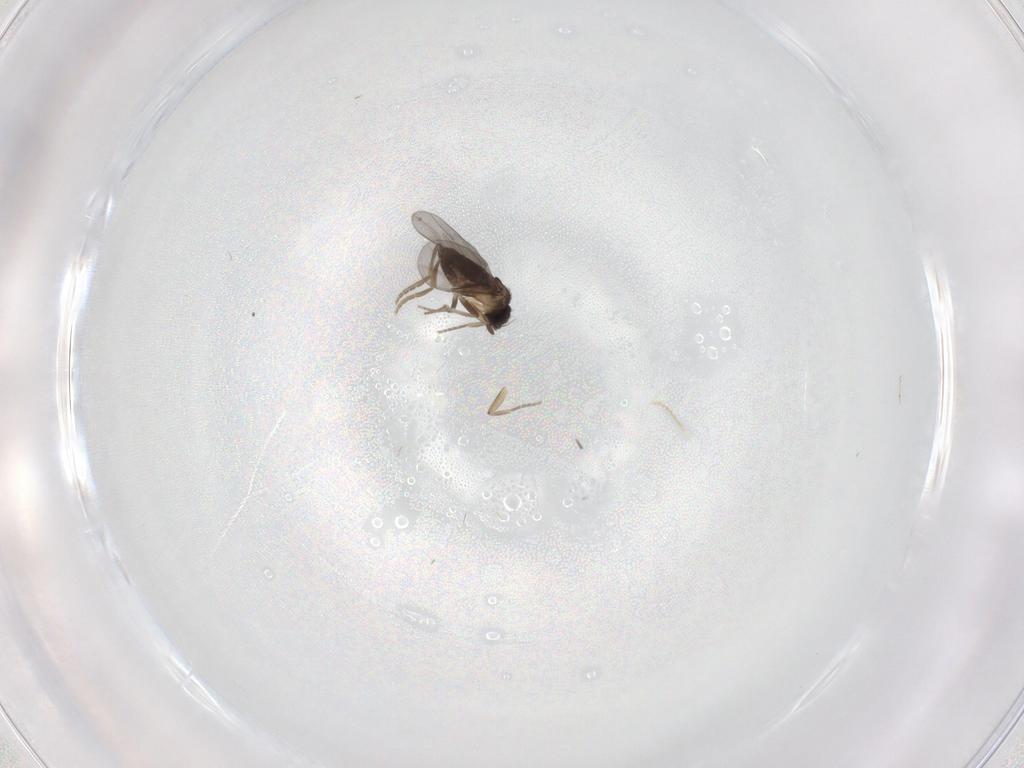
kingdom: Animalia
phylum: Arthropoda
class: Insecta
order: Diptera
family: Cecidomyiidae
